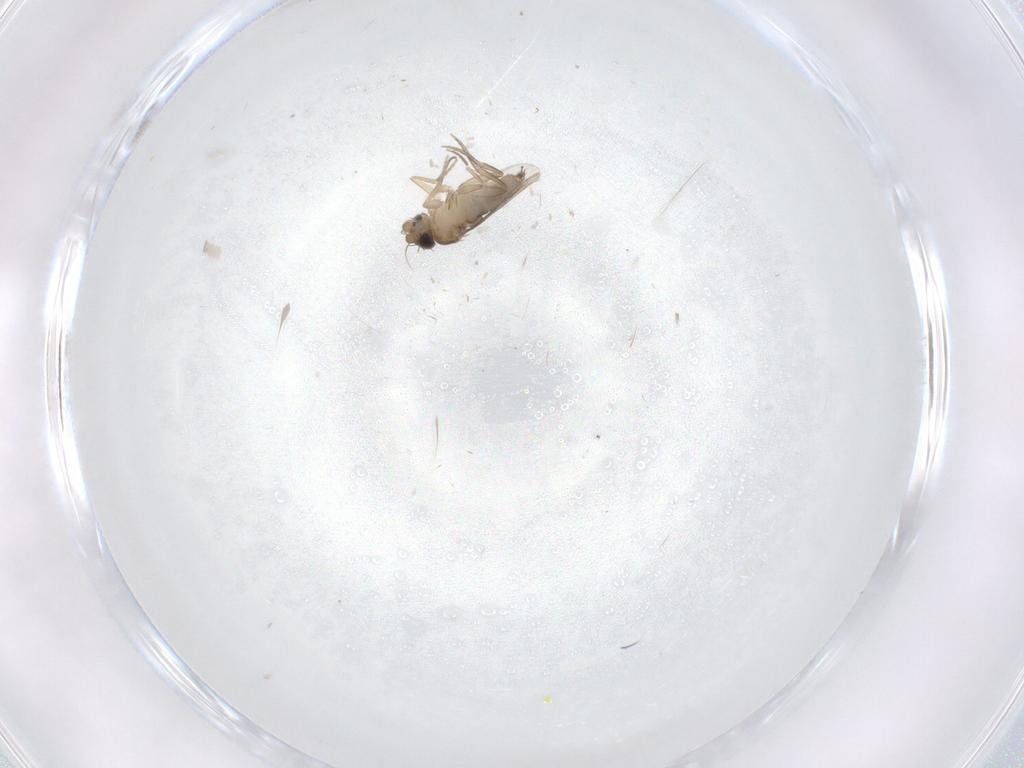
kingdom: Animalia
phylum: Arthropoda
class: Insecta
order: Diptera
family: Phoridae
